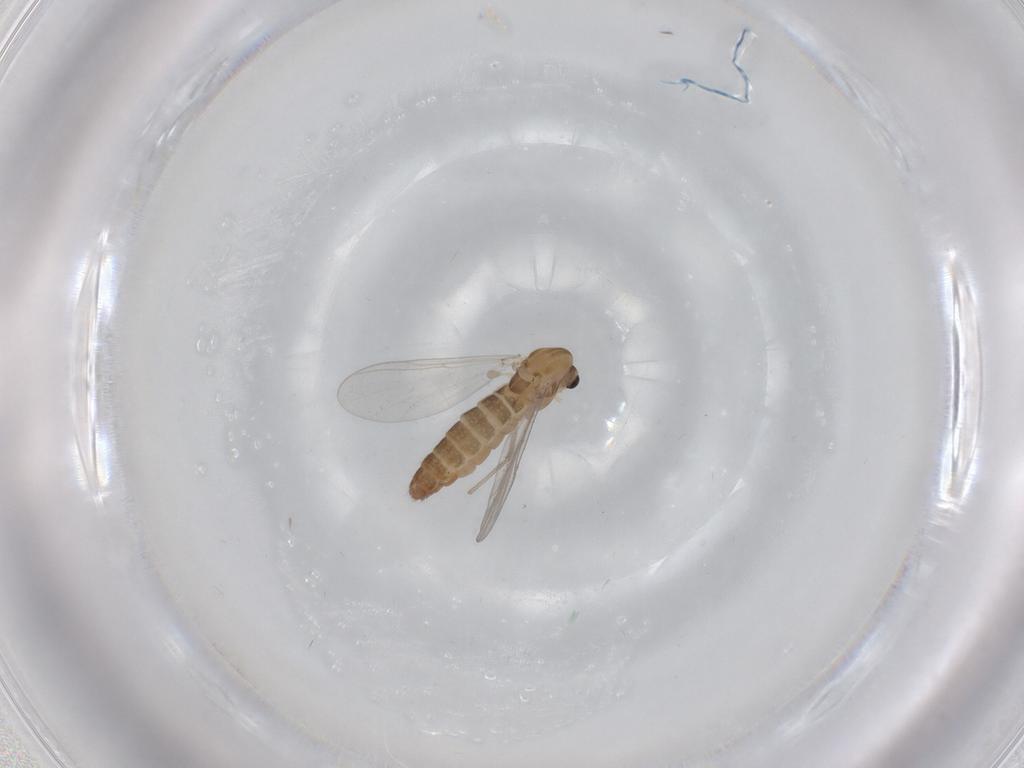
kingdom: Animalia
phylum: Arthropoda
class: Insecta
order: Diptera
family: Chironomidae
